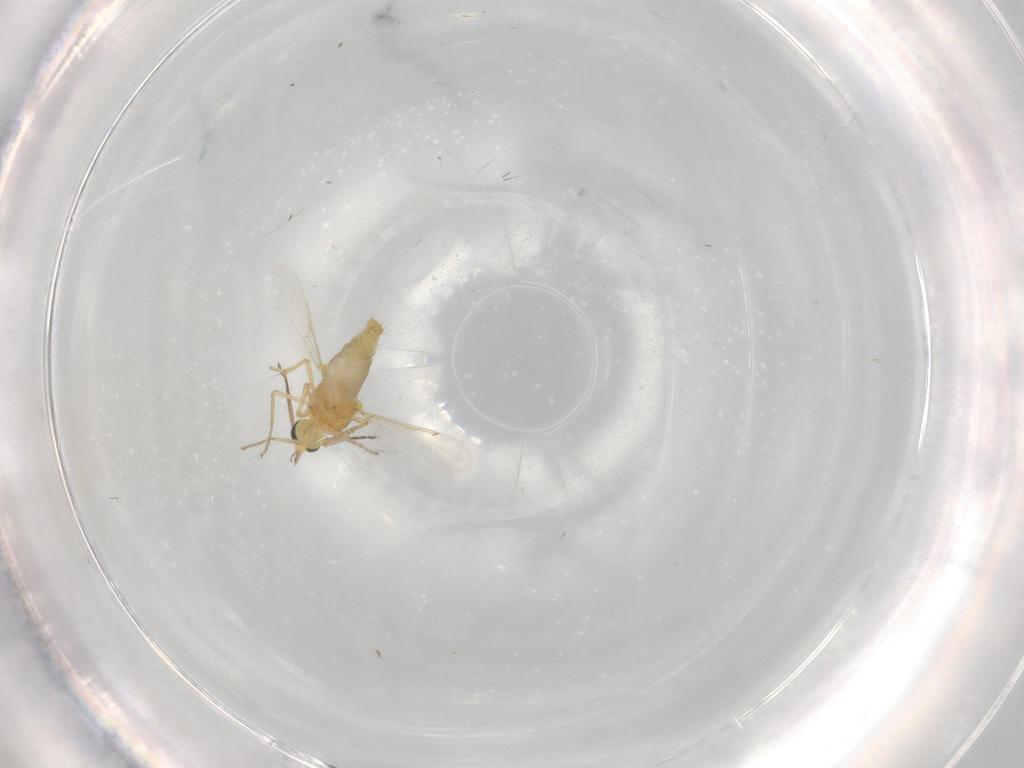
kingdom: Animalia
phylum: Arthropoda
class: Insecta
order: Diptera
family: Ceratopogonidae
